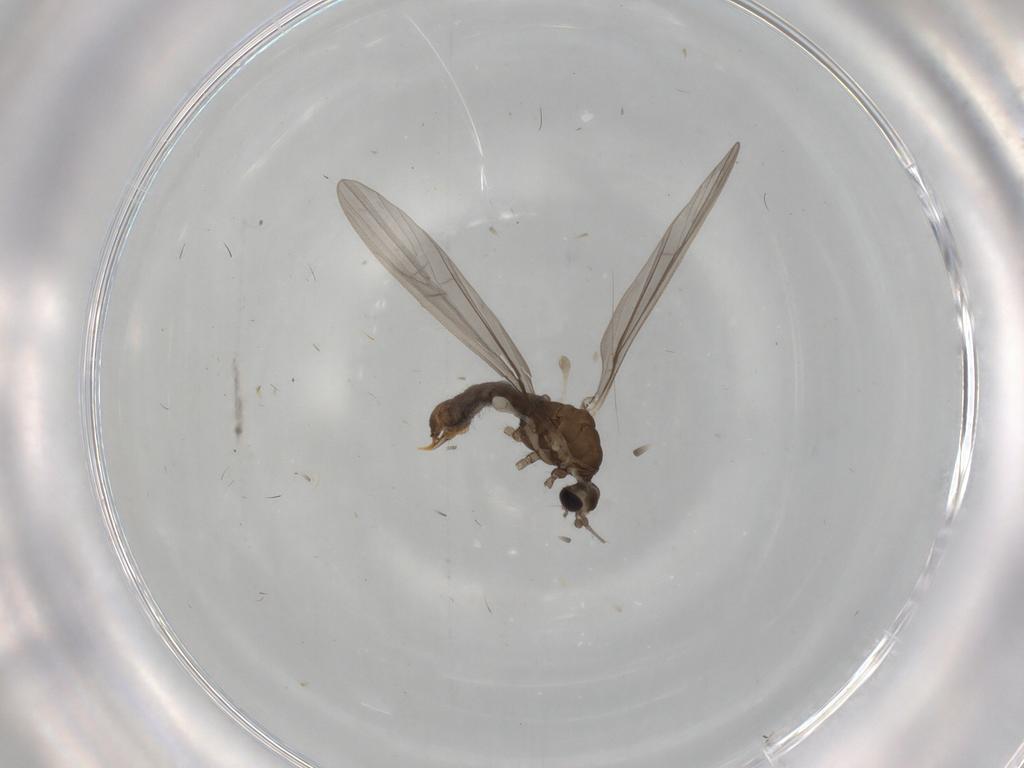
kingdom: Animalia
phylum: Arthropoda
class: Insecta
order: Diptera
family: Limoniidae
